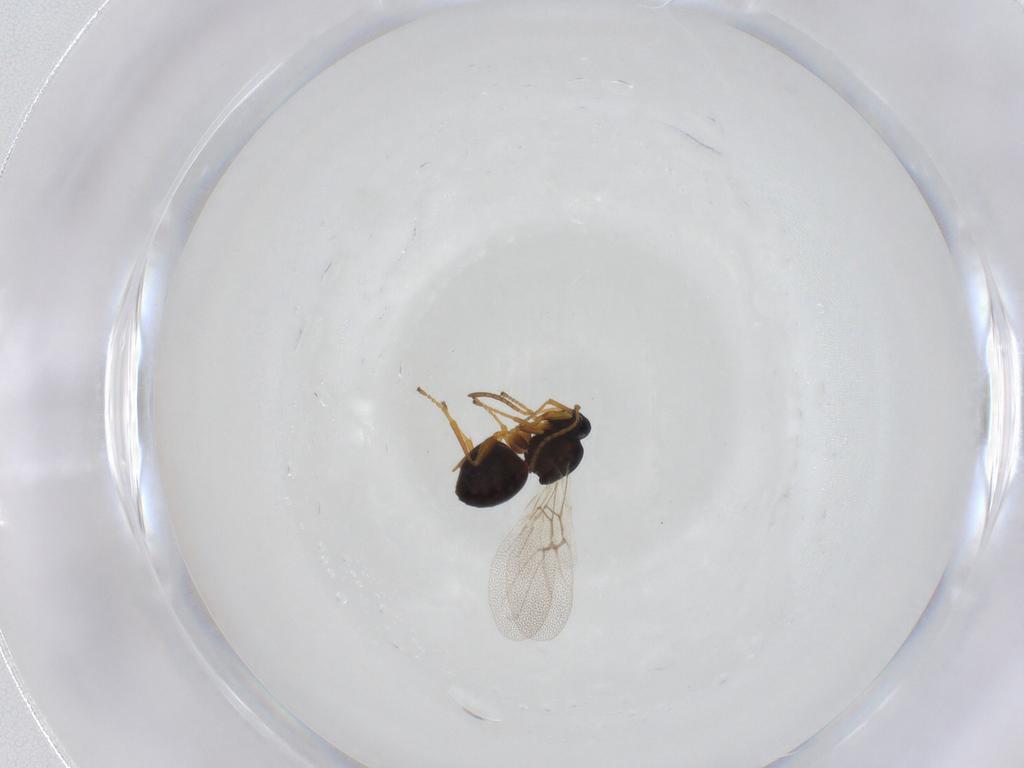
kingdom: Animalia
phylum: Arthropoda
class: Insecta
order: Hymenoptera
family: Cynipidae
